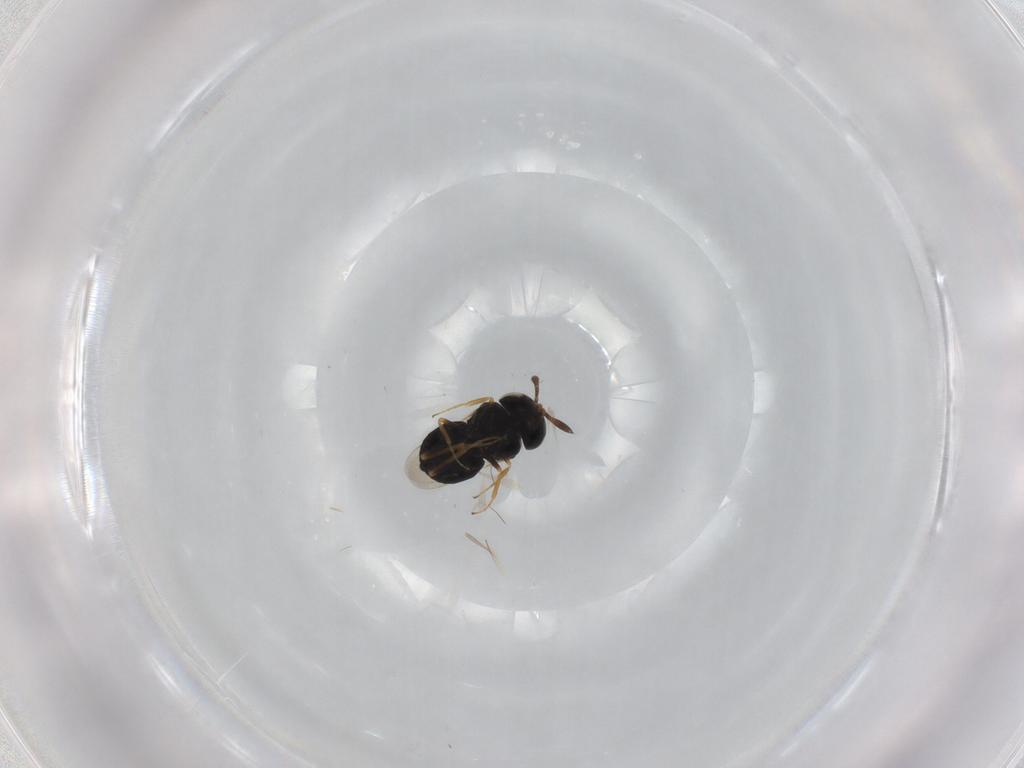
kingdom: Animalia
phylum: Arthropoda
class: Insecta
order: Hymenoptera
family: Scelionidae
